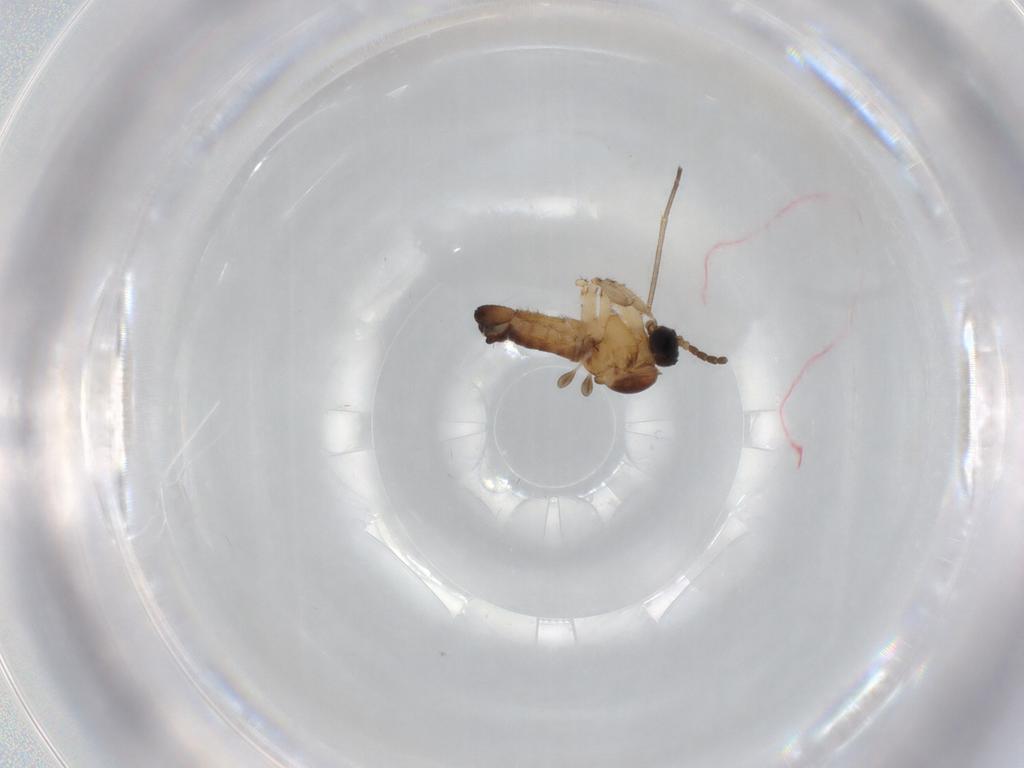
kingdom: Animalia
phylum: Arthropoda
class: Insecta
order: Diptera
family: Sciaridae
